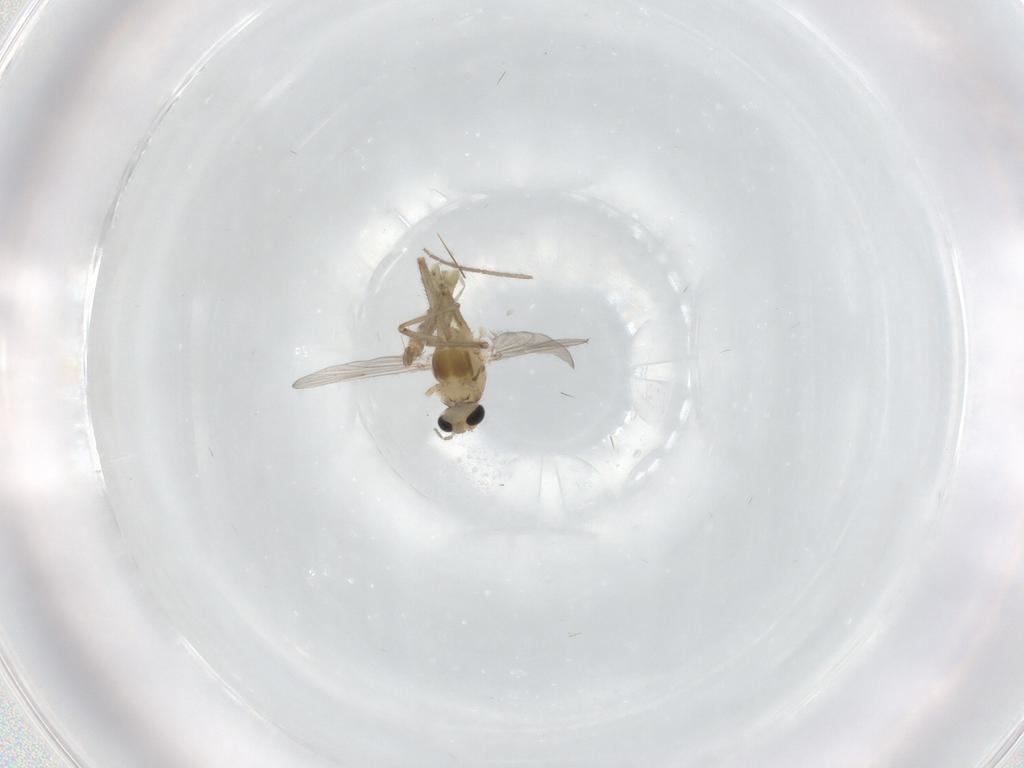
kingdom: Animalia
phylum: Arthropoda
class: Insecta
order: Diptera
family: Chironomidae
